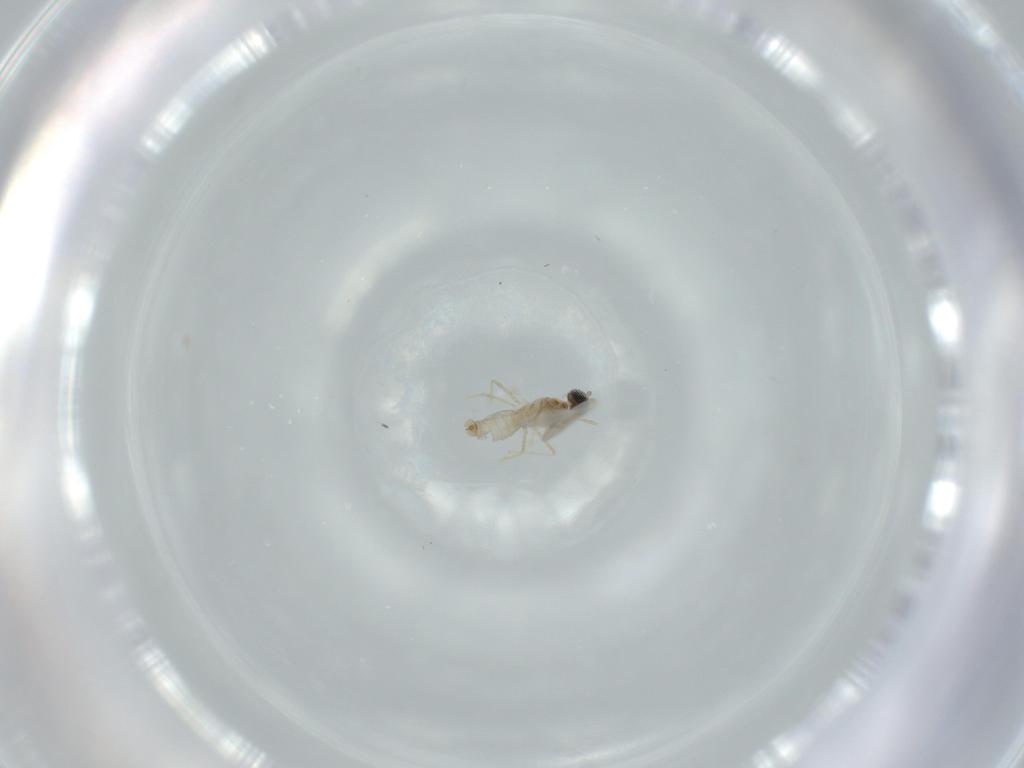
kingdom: Animalia
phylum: Arthropoda
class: Insecta
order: Diptera
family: Cecidomyiidae
